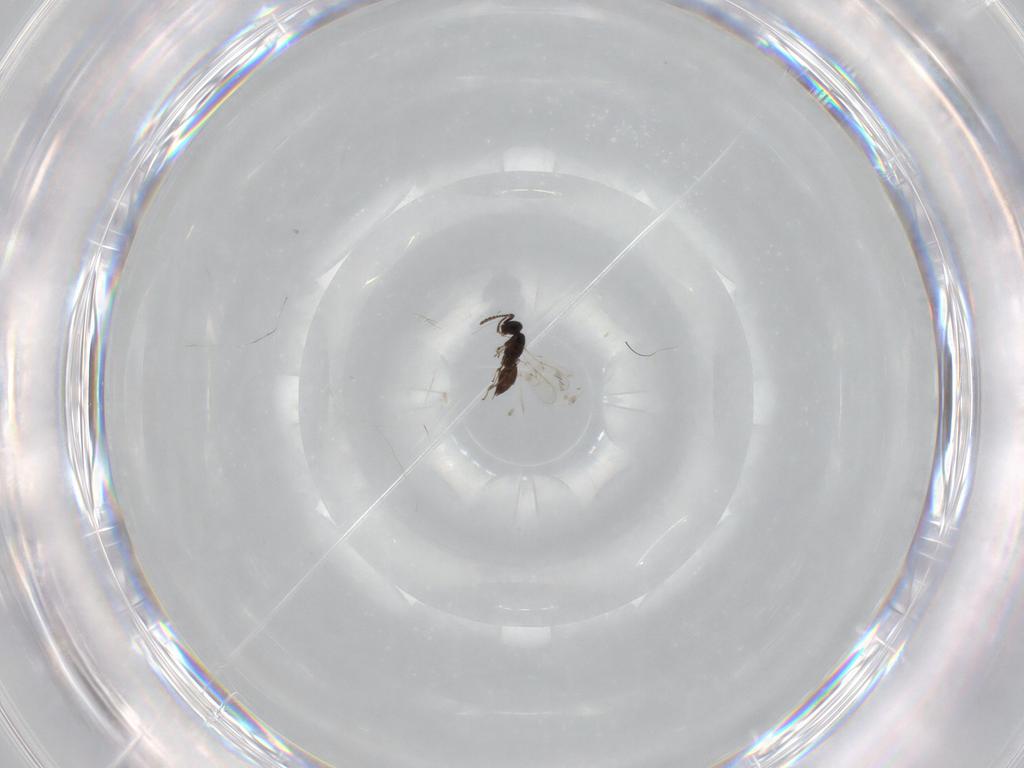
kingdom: Animalia
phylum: Arthropoda
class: Insecta
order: Hymenoptera
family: Scelionidae
